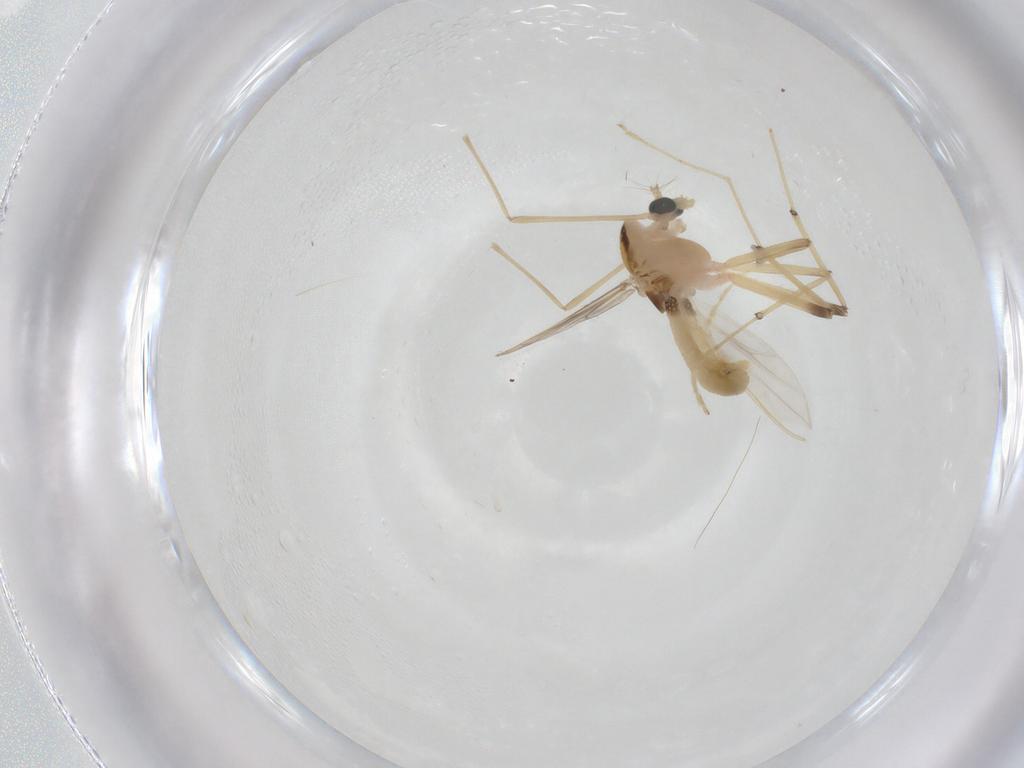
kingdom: Animalia
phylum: Arthropoda
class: Insecta
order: Diptera
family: Chironomidae
